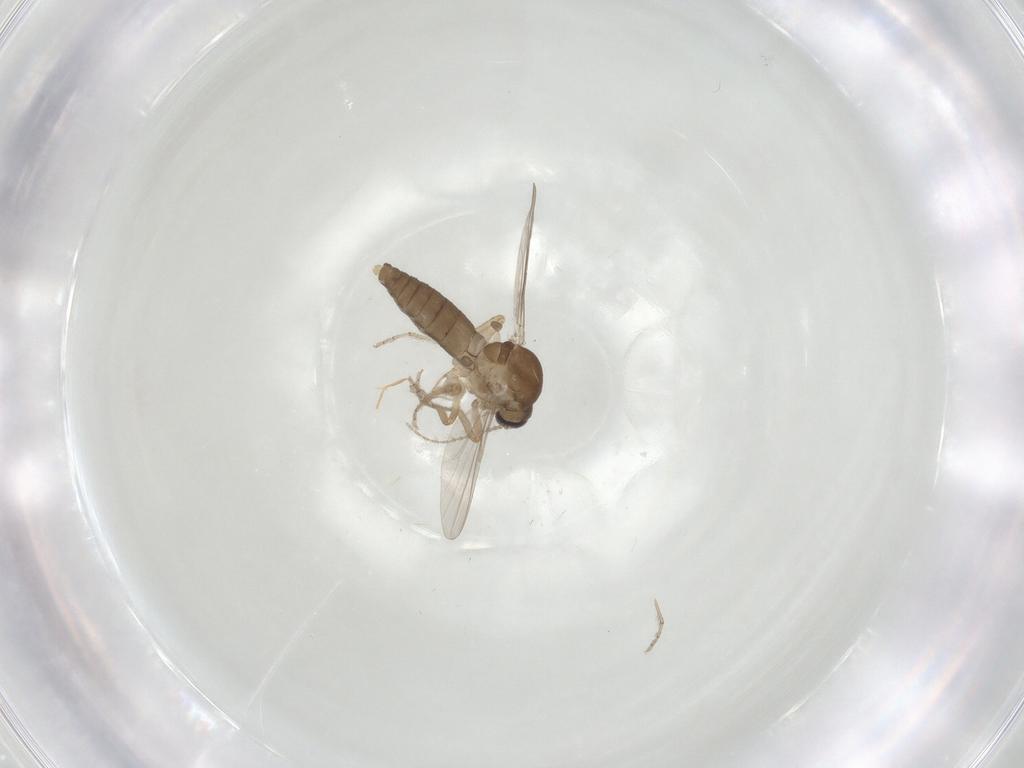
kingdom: Animalia
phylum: Arthropoda
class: Insecta
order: Diptera
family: Ceratopogonidae
